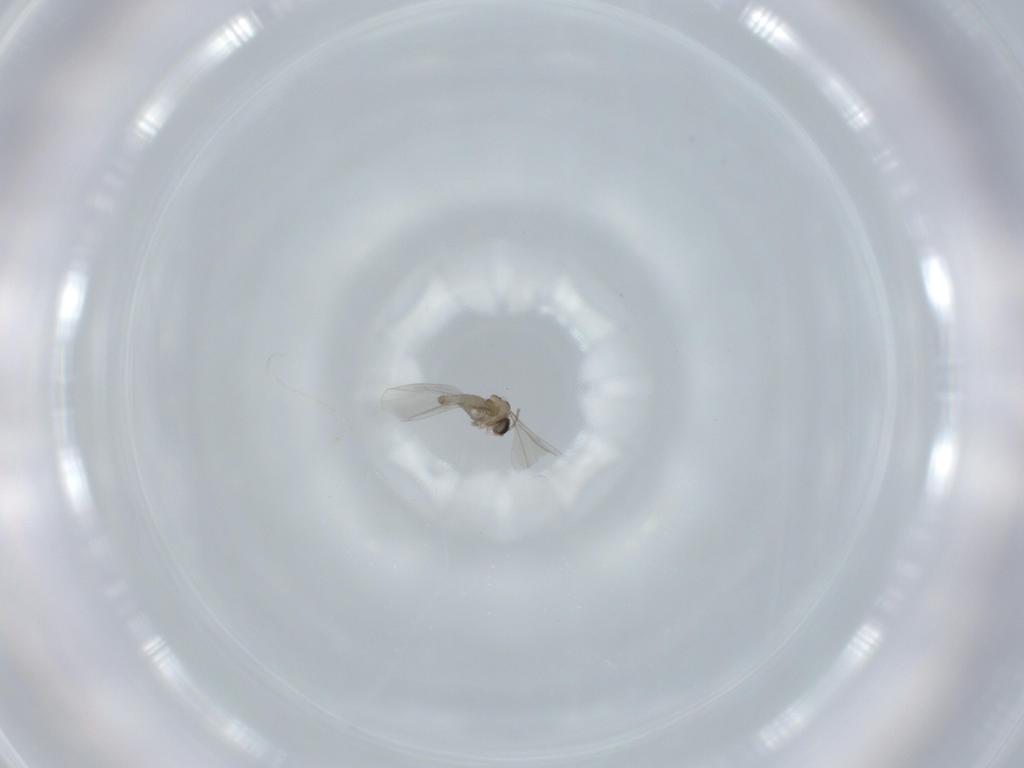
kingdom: Animalia
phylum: Arthropoda
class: Insecta
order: Diptera
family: Cecidomyiidae
